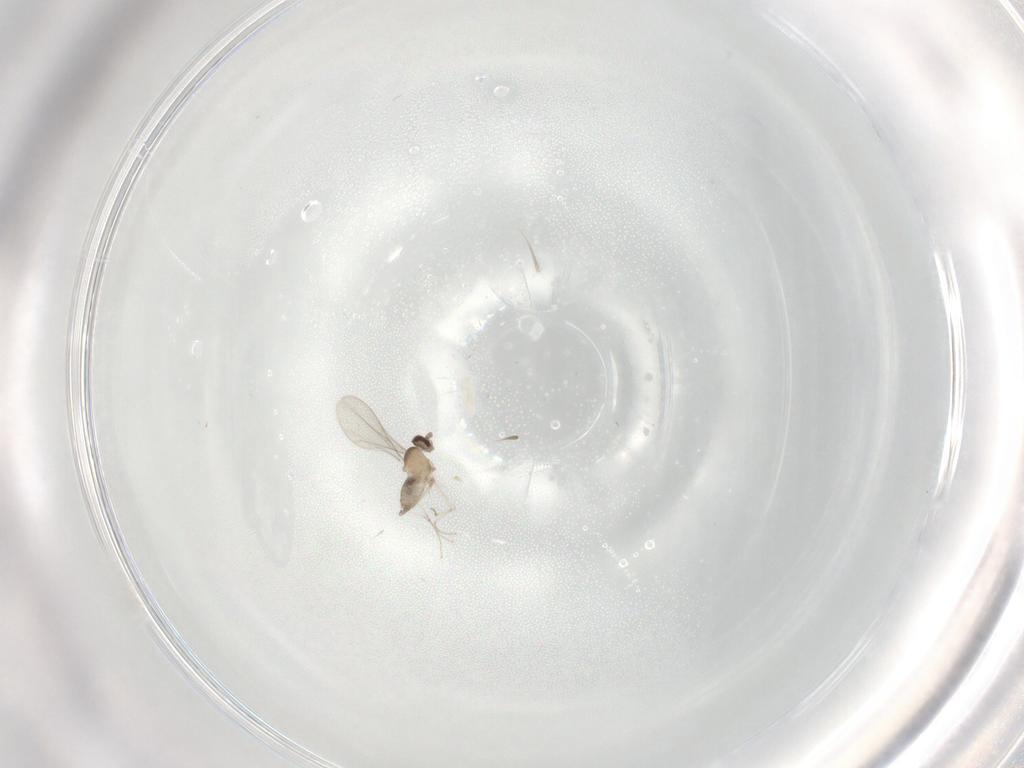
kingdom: Animalia
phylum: Arthropoda
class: Insecta
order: Diptera
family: Cecidomyiidae
